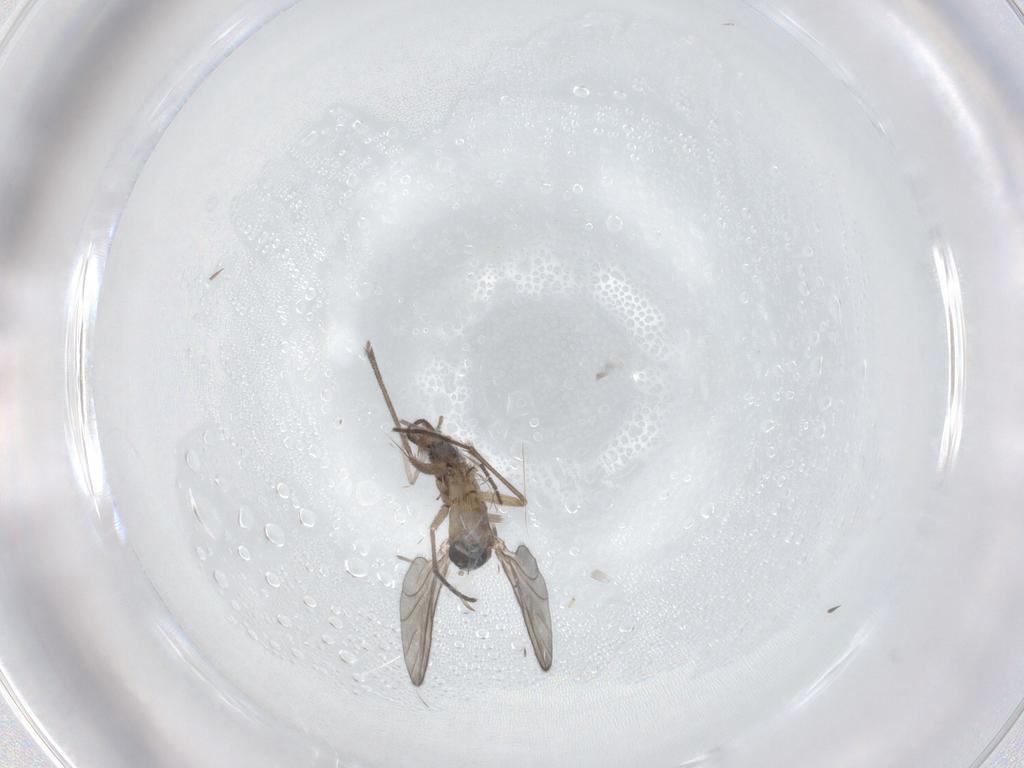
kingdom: Animalia
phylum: Arthropoda
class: Insecta
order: Diptera
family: Sciaridae
